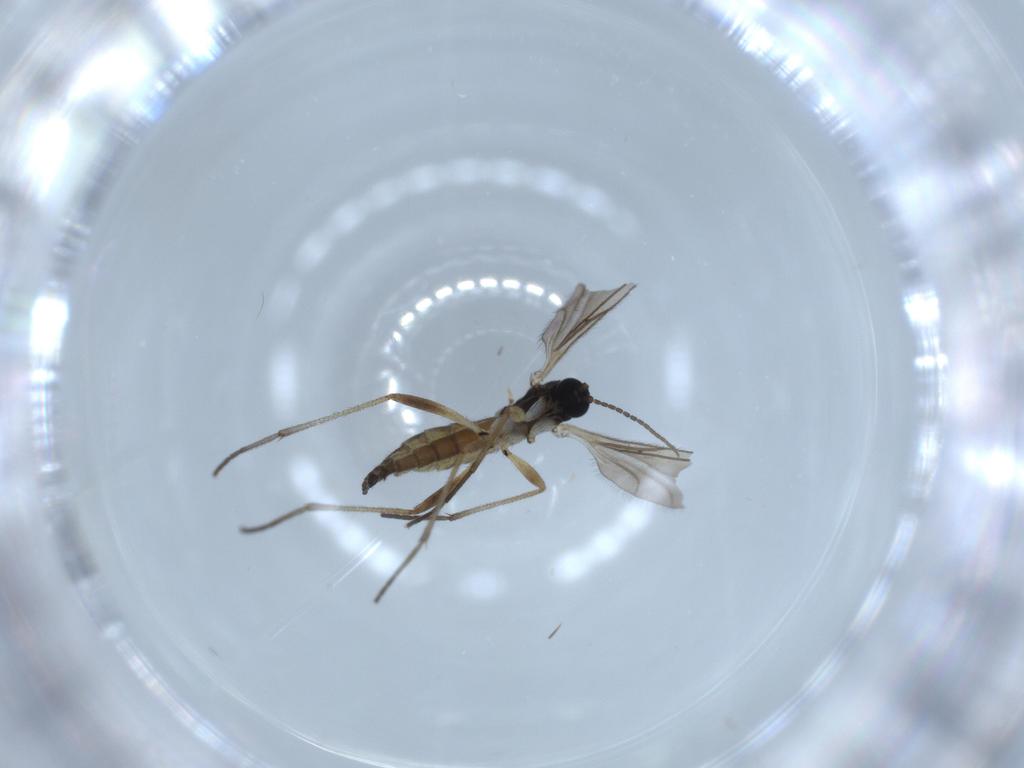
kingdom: Animalia
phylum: Arthropoda
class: Insecta
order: Diptera
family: Sciaridae
